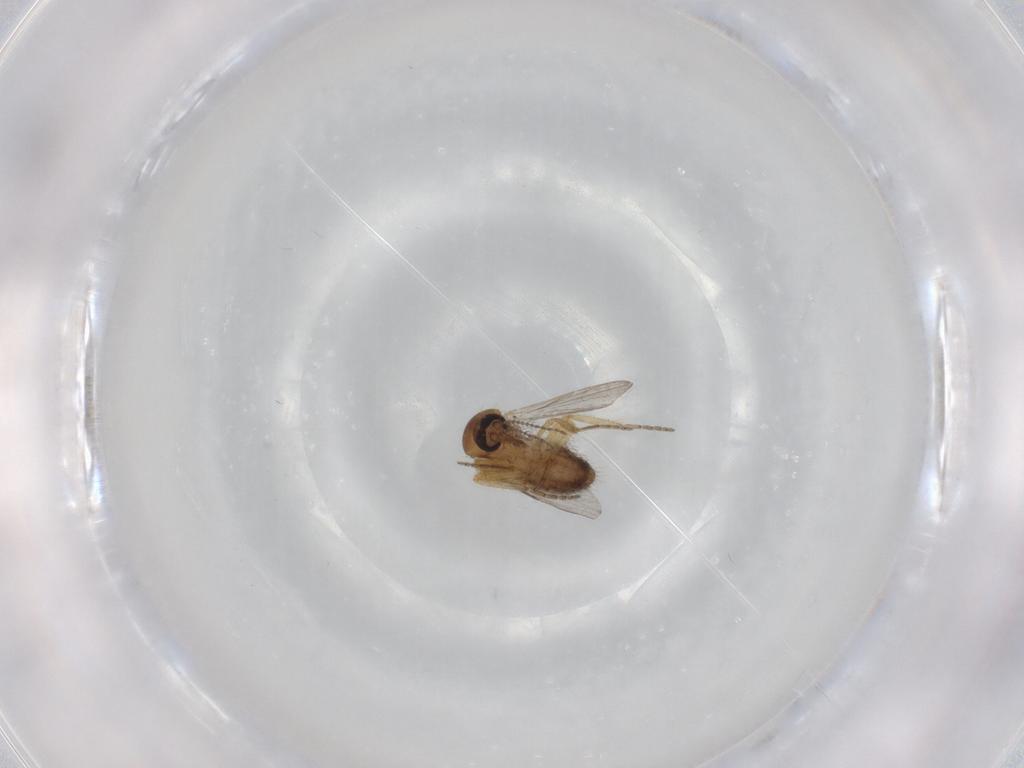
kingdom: Animalia
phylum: Arthropoda
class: Insecta
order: Diptera
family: Ceratopogonidae
